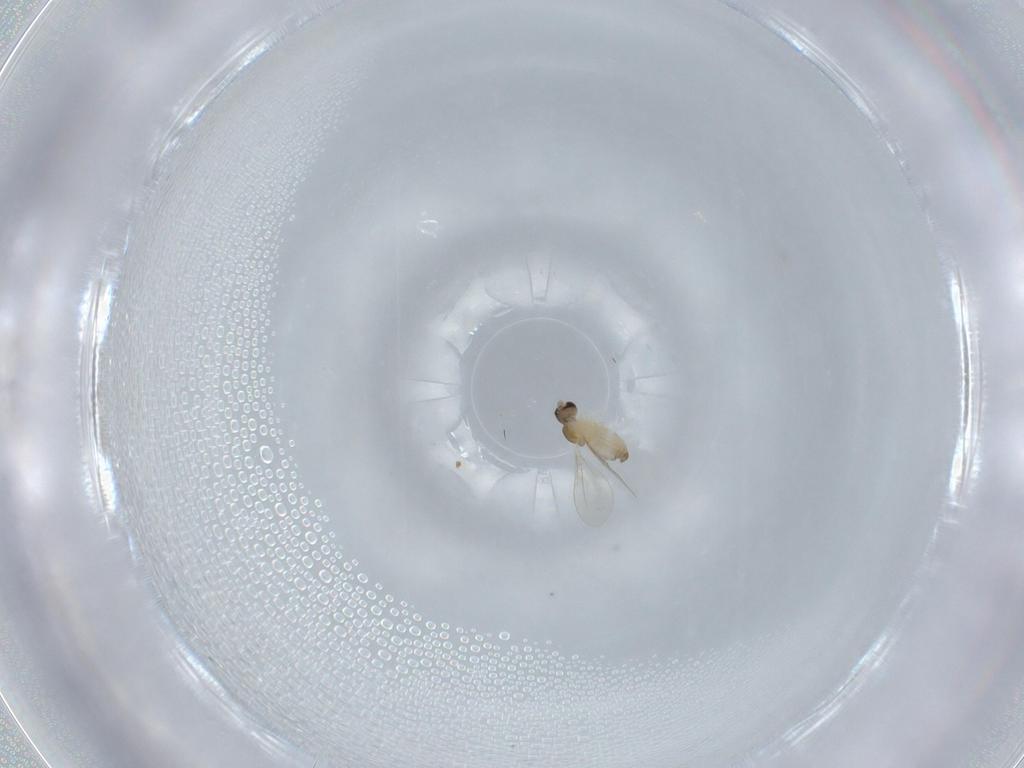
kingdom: Animalia
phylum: Arthropoda
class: Insecta
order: Diptera
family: Cecidomyiidae
